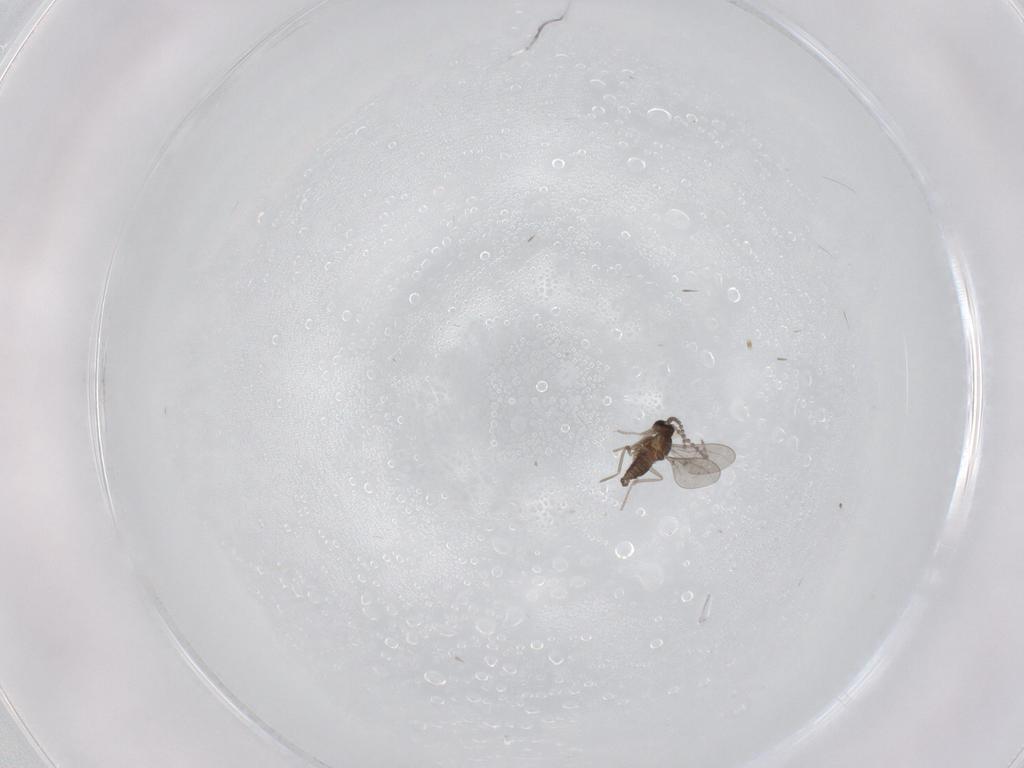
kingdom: Animalia
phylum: Arthropoda
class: Insecta
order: Diptera
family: Cecidomyiidae
